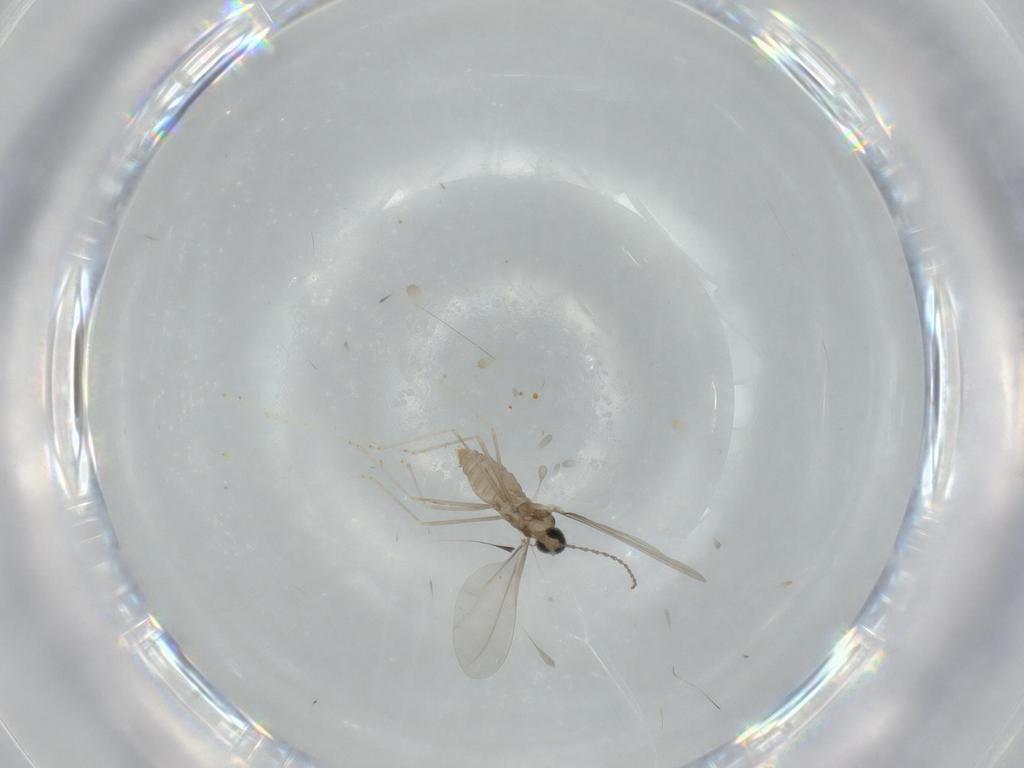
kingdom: Animalia
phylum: Arthropoda
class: Insecta
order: Diptera
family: Cecidomyiidae
